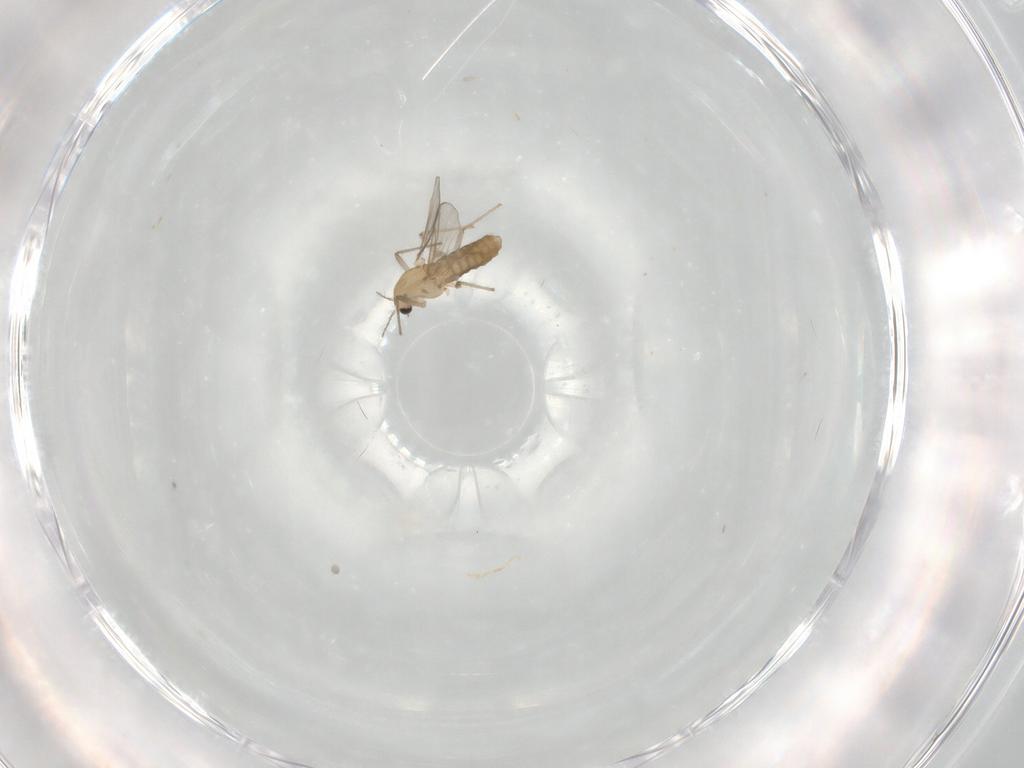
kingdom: Animalia
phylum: Arthropoda
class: Insecta
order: Diptera
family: Chironomidae
